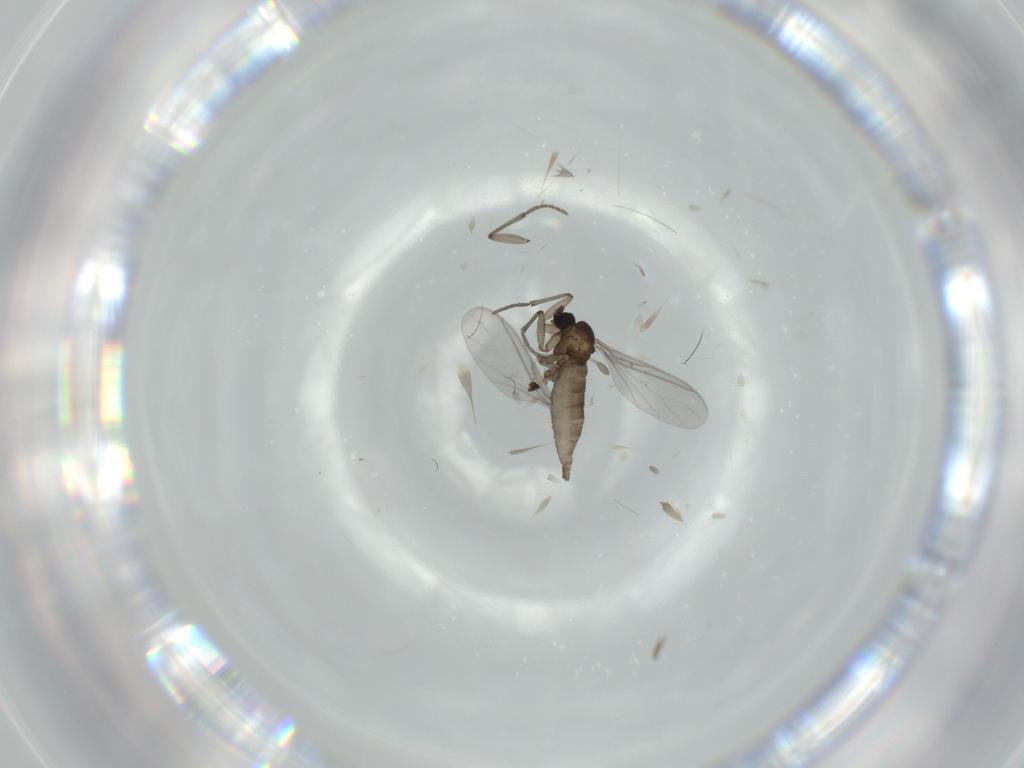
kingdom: Animalia
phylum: Arthropoda
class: Insecta
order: Diptera
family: Sciaridae
